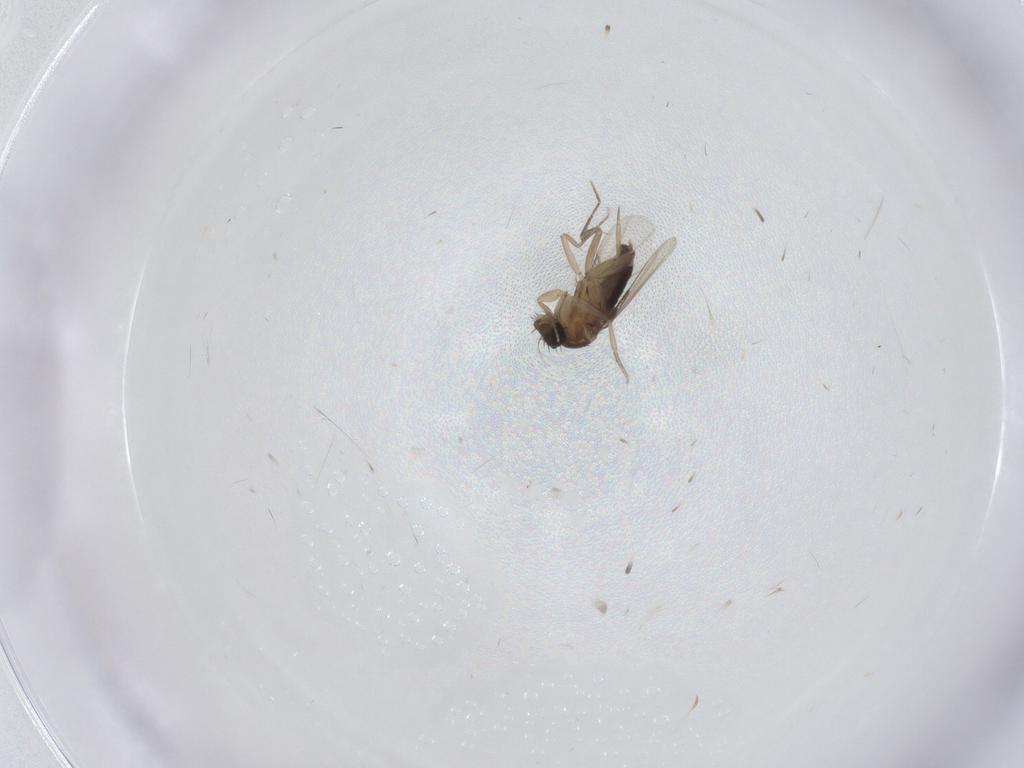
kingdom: Animalia
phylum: Arthropoda
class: Insecta
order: Diptera
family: Phoridae
